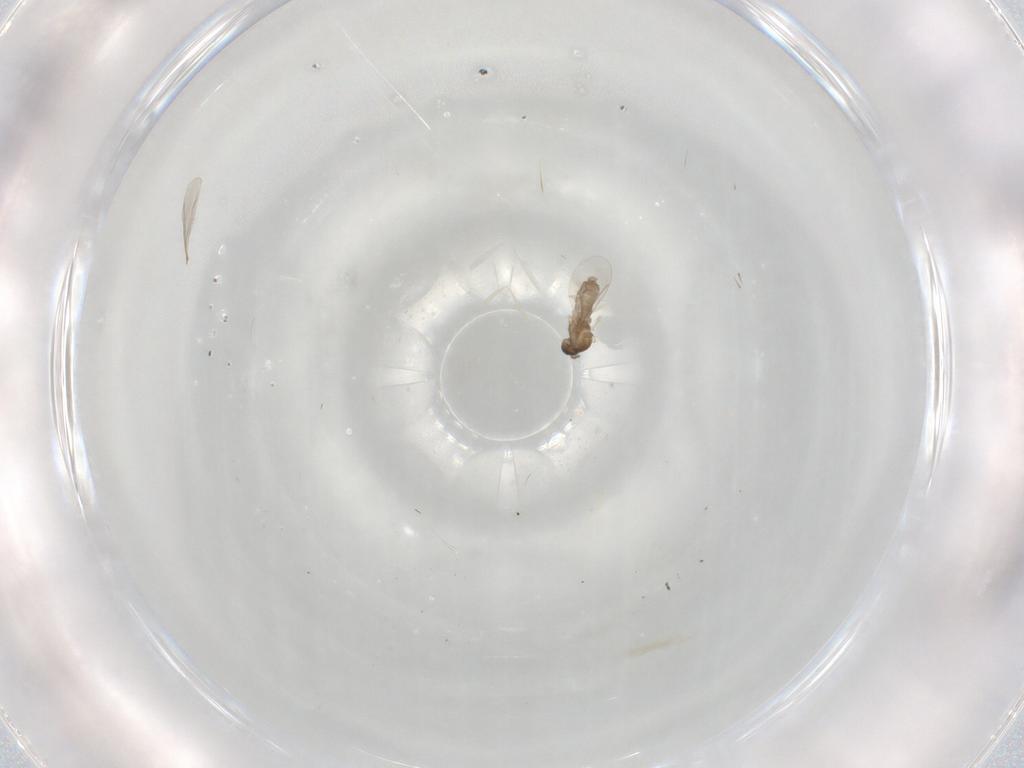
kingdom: Animalia
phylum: Arthropoda
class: Insecta
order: Diptera
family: Cecidomyiidae
